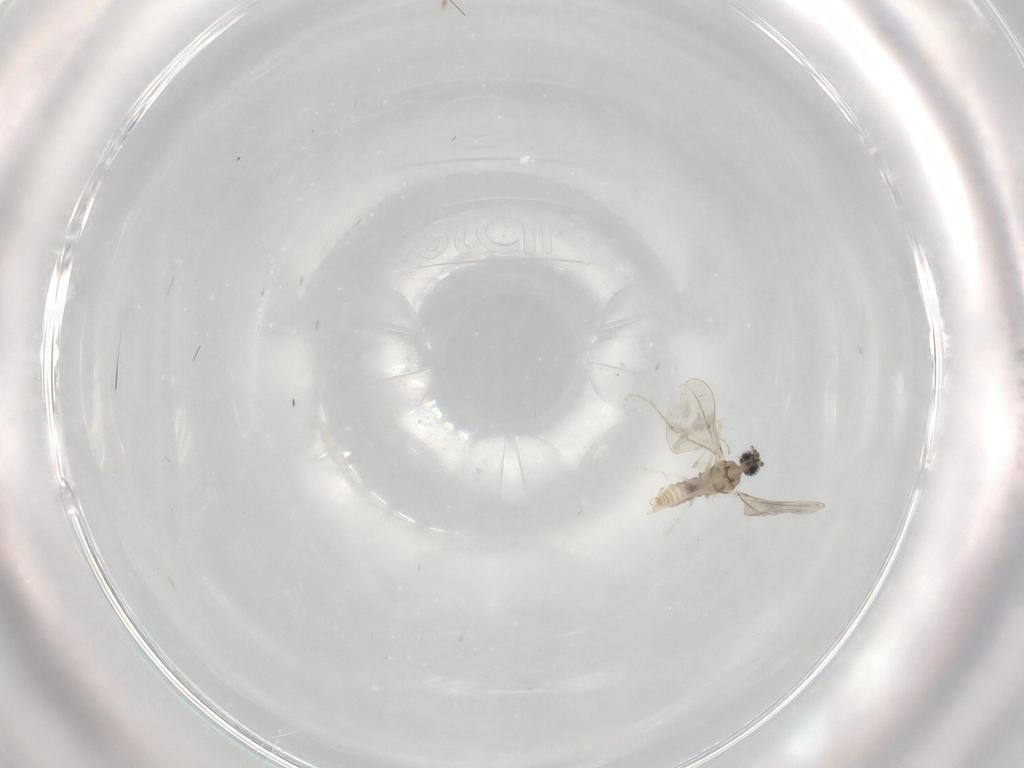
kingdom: Animalia
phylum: Arthropoda
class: Insecta
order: Diptera
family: Cecidomyiidae
